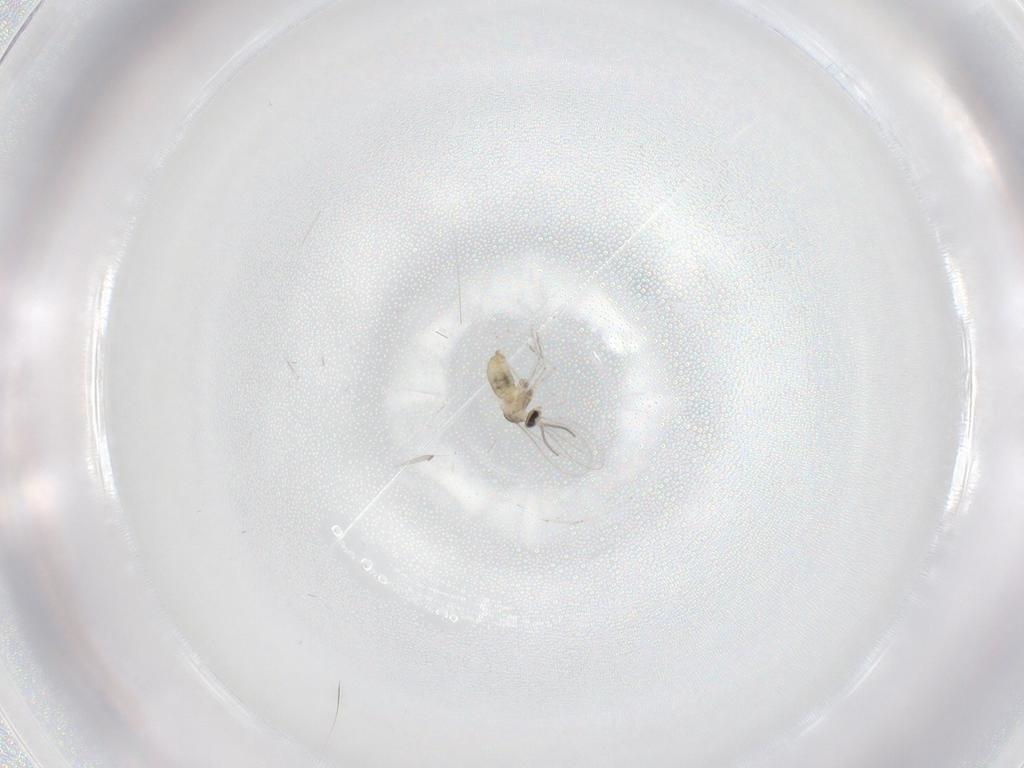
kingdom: Animalia
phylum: Arthropoda
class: Insecta
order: Diptera
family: Cecidomyiidae
